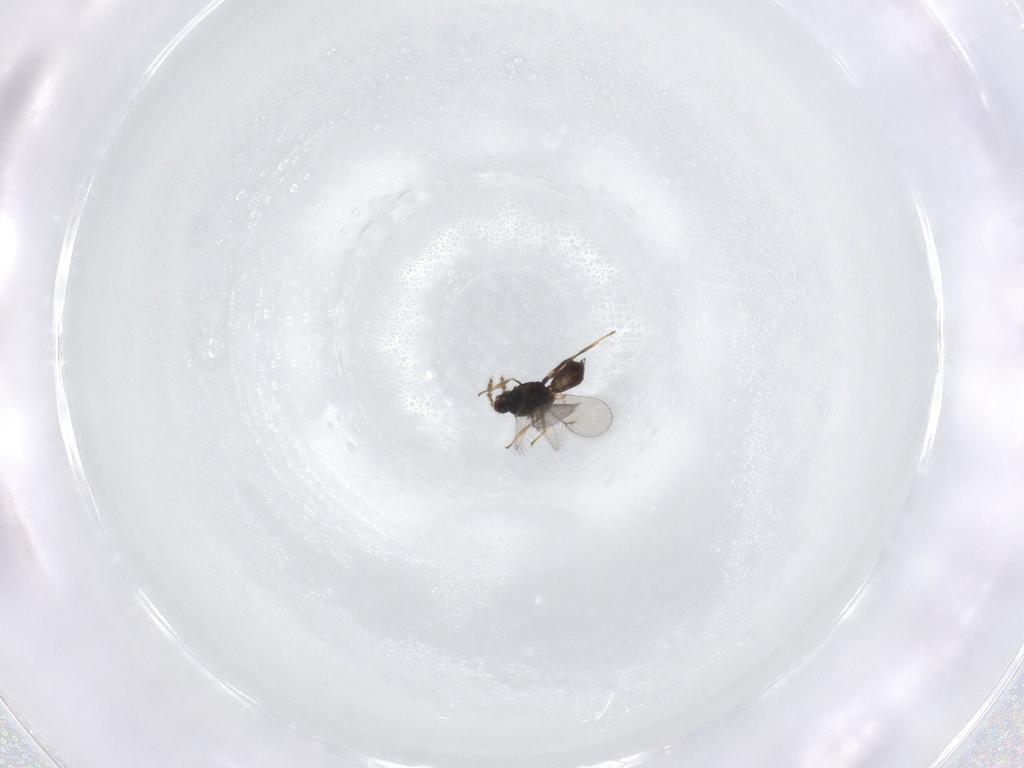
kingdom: Animalia
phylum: Arthropoda
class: Insecta
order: Hymenoptera
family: Eulophidae
